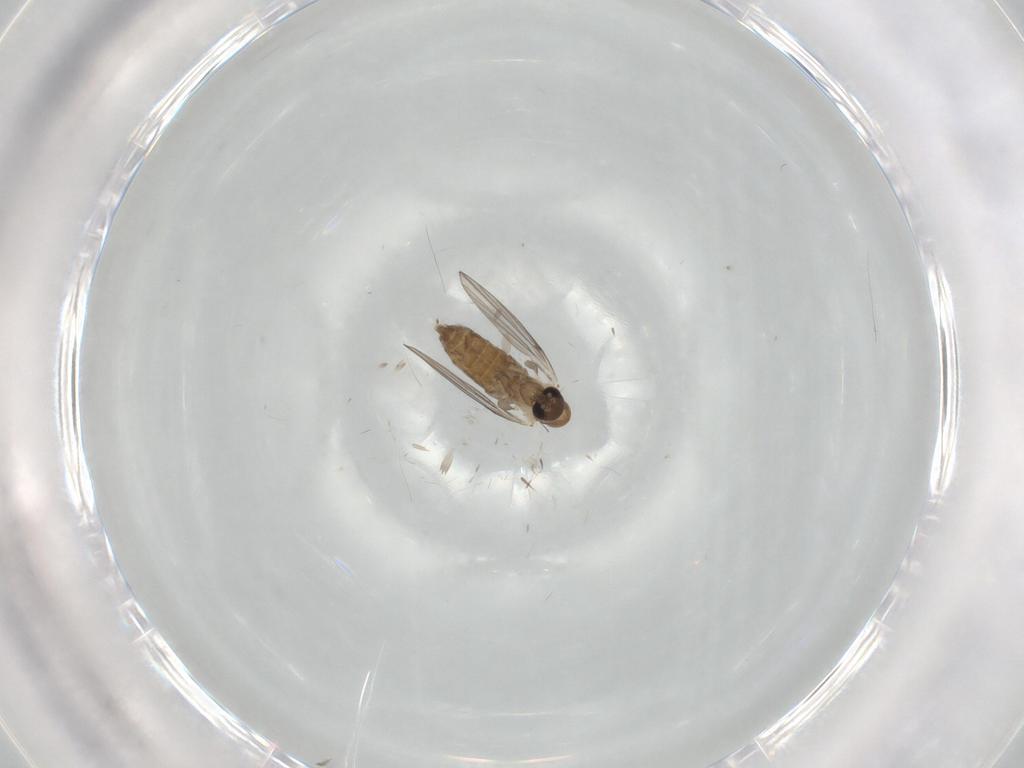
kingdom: Animalia
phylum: Arthropoda
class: Insecta
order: Diptera
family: Cecidomyiidae
